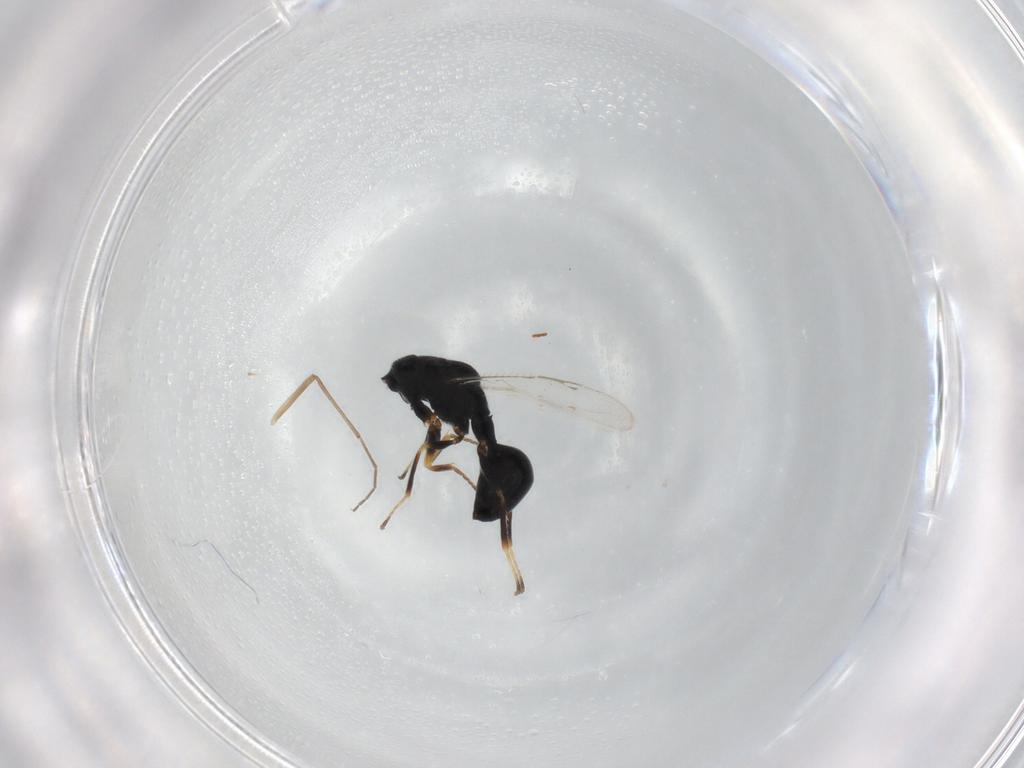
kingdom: Animalia
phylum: Arthropoda
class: Insecta
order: Hymenoptera
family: Eurytomidae
